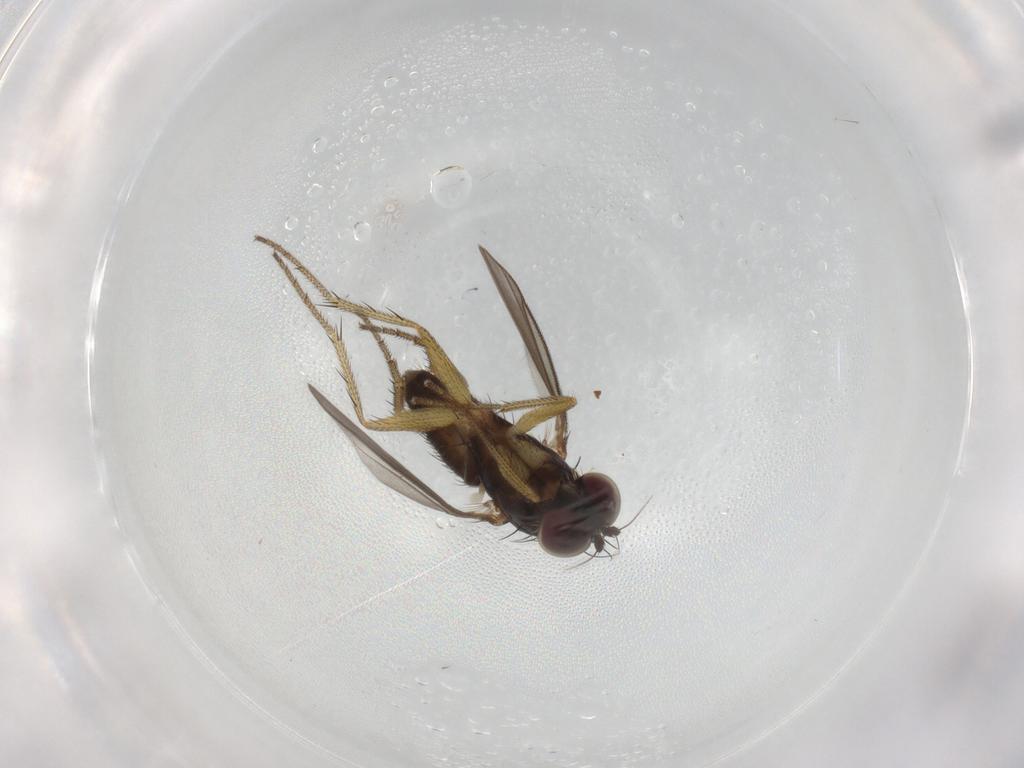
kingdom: Animalia
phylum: Arthropoda
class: Insecta
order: Diptera
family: Dolichopodidae
